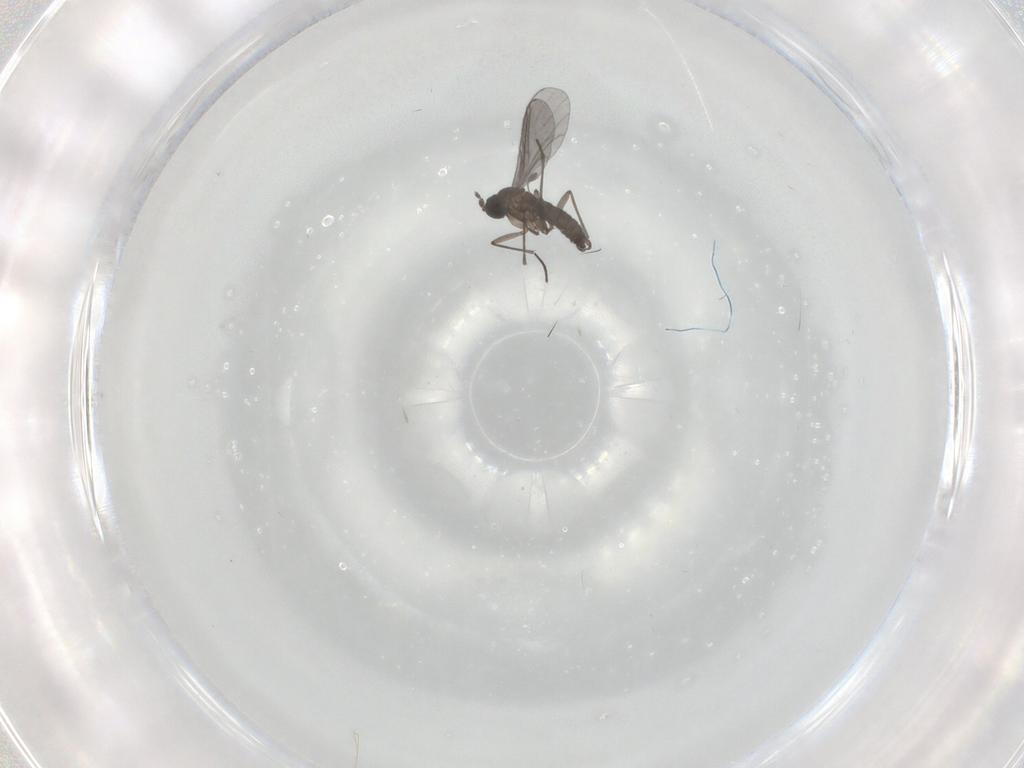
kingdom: Animalia
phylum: Arthropoda
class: Insecta
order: Diptera
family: Phoridae
